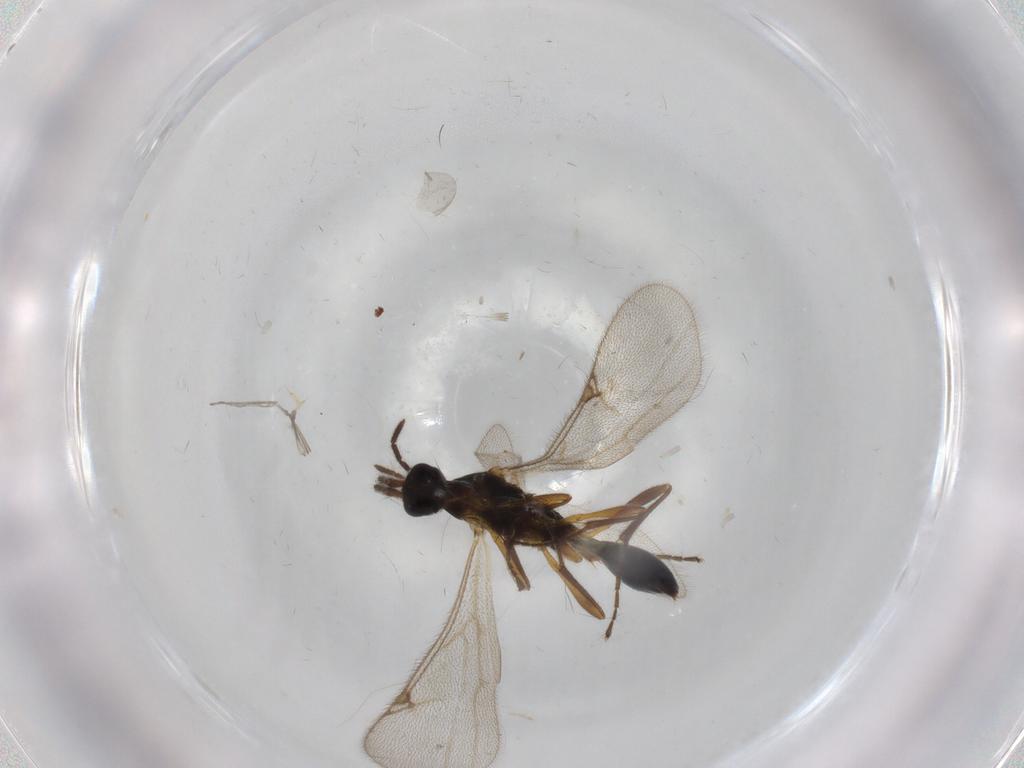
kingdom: Animalia
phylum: Arthropoda
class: Insecta
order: Hymenoptera
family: Proctotrupidae
